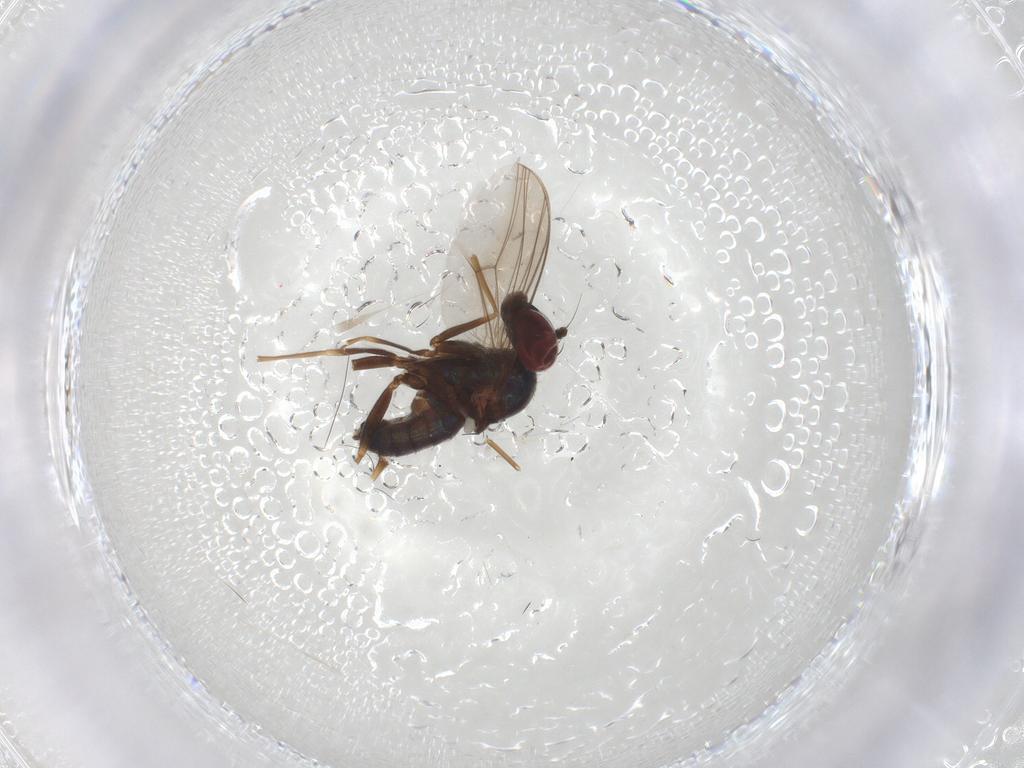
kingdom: Animalia
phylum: Arthropoda
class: Insecta
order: Diptera
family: Dolichopodidae
